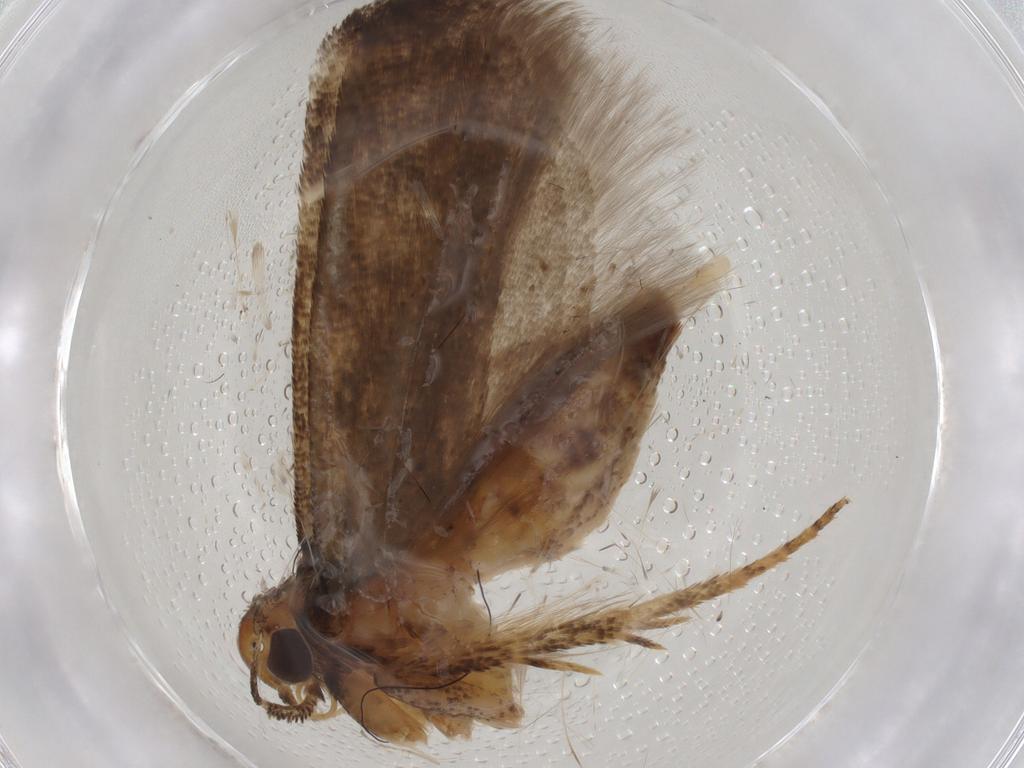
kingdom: Animalia
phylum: Arthropoda
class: Insecta
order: Lepidoptera
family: Gelechiidae
